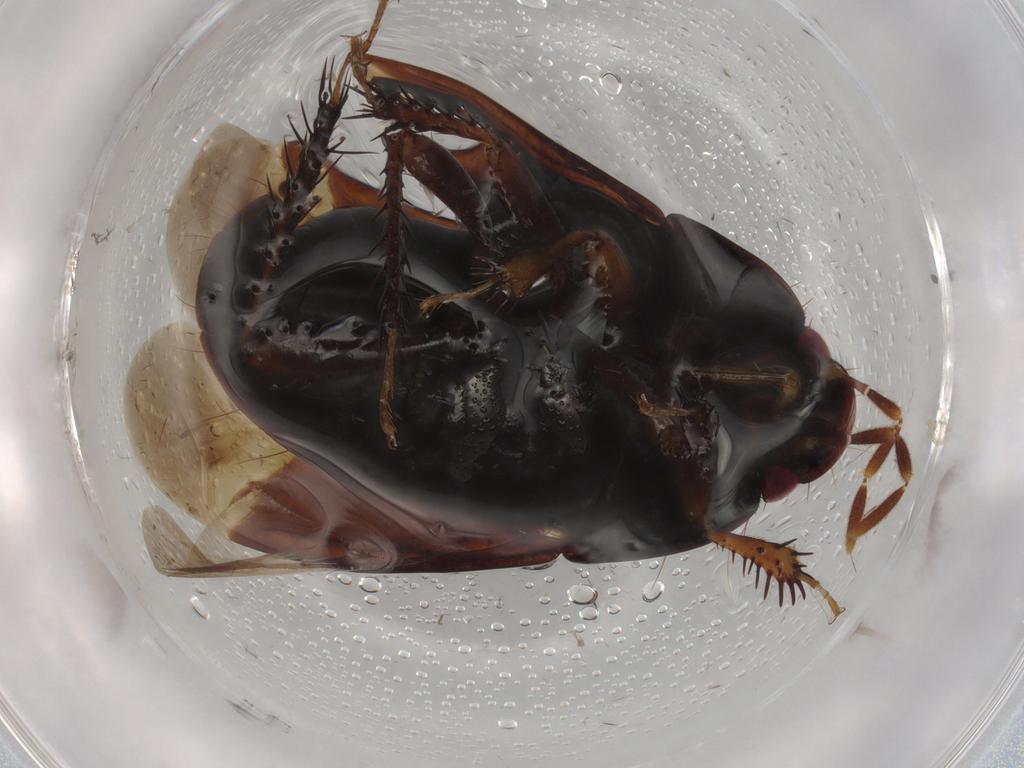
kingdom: Animalia
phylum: Arthropoda
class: Insecta
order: Hemiptera
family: Cydnidae
